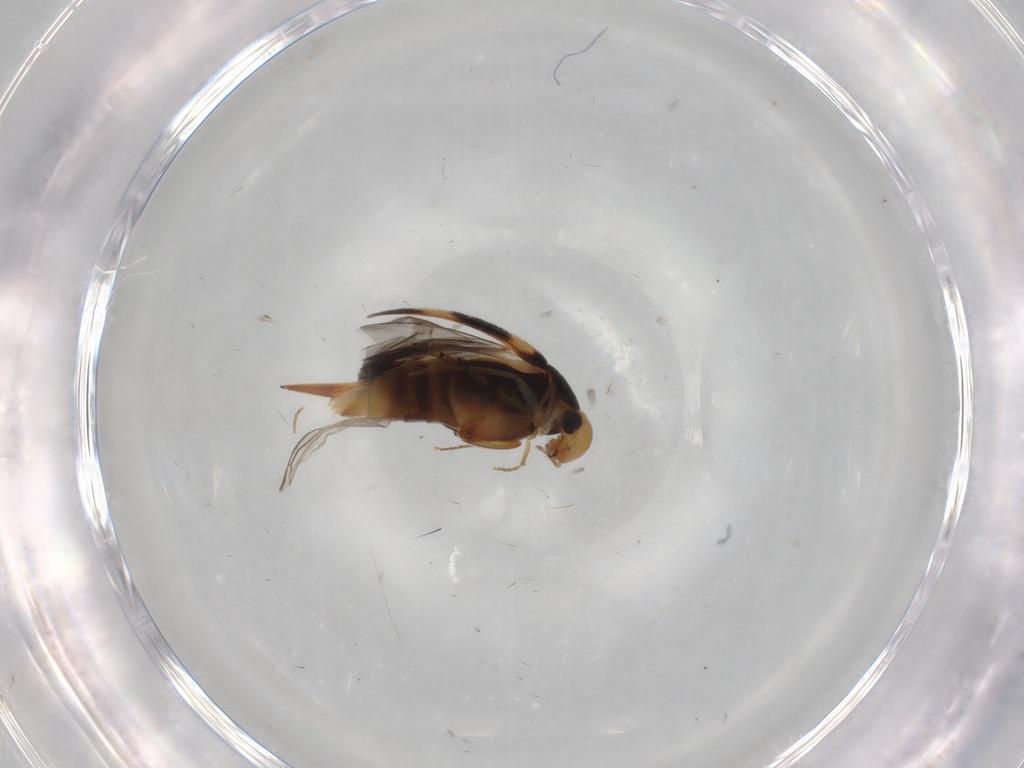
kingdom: Animalia
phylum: Arthropoda
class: Insecta
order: Coleoptera
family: Mordellidae
